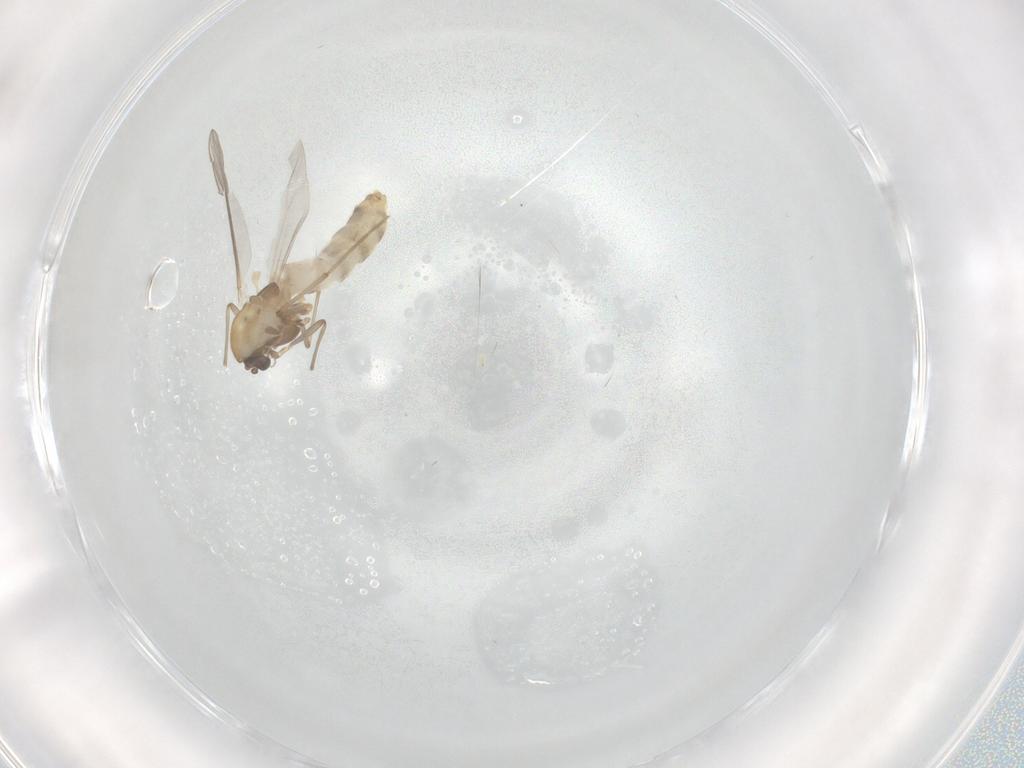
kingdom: Animalia
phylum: Arthropoda
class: Insecta
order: Diptera
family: Chironomidae
